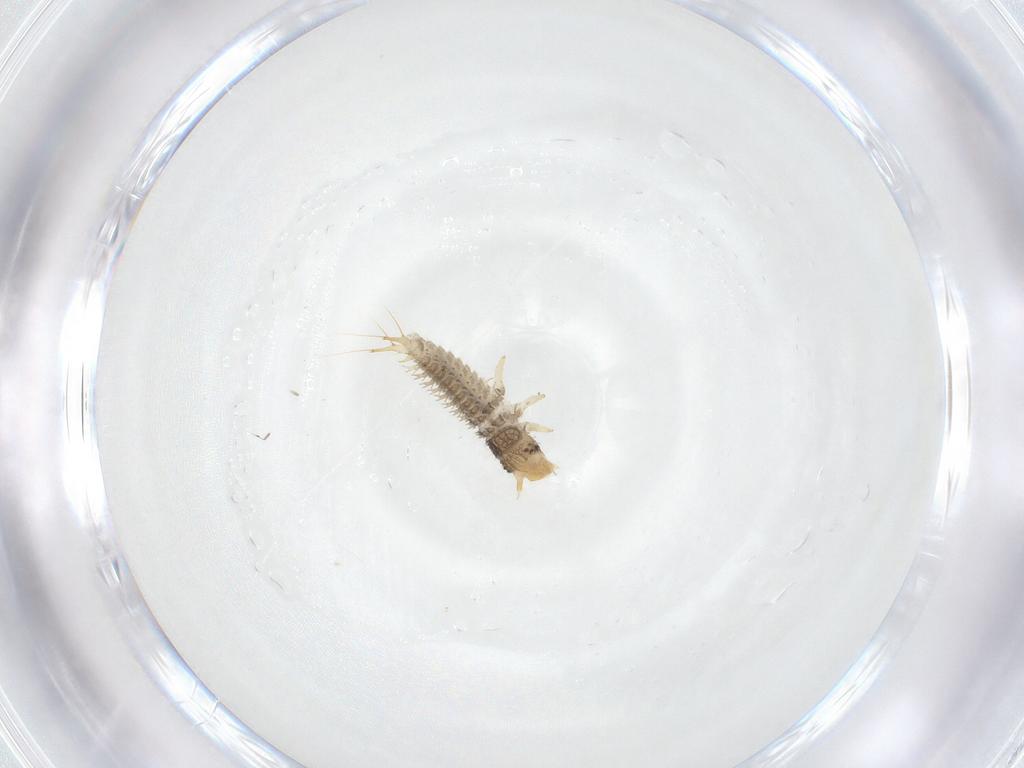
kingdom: Animalia
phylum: Arthropoda
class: Insecta
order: Coleoptera
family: Nitidulidae
